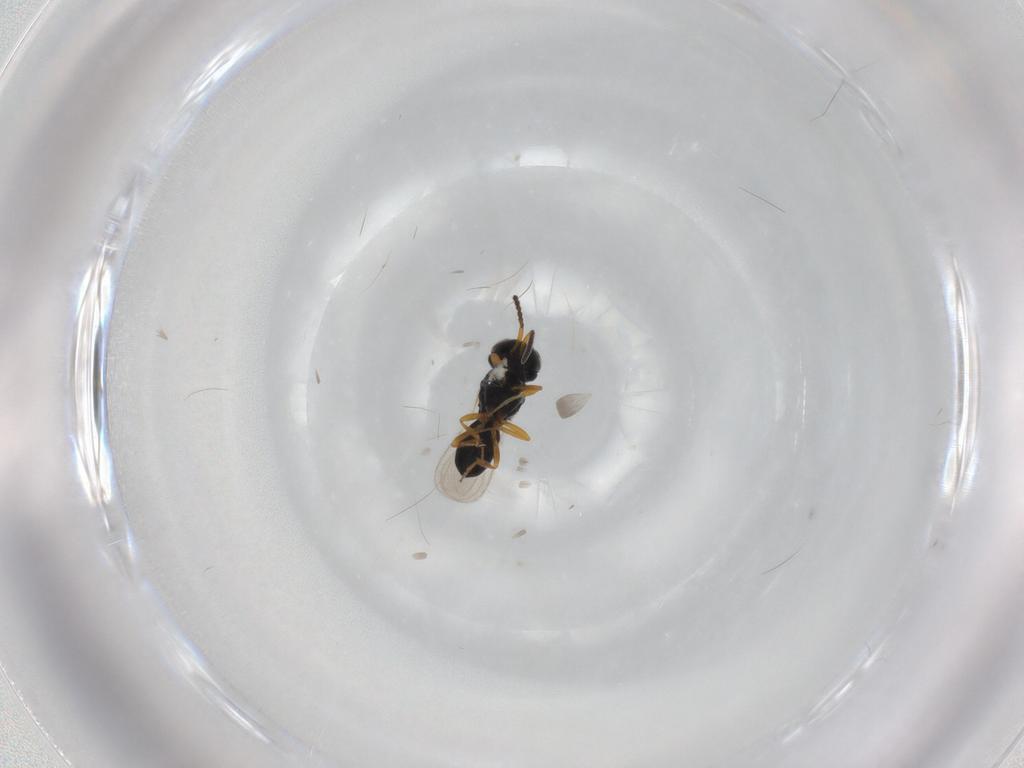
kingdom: Animalia
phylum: Arthropoda
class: Insecta
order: Hymenoptera
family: Scelionidae
